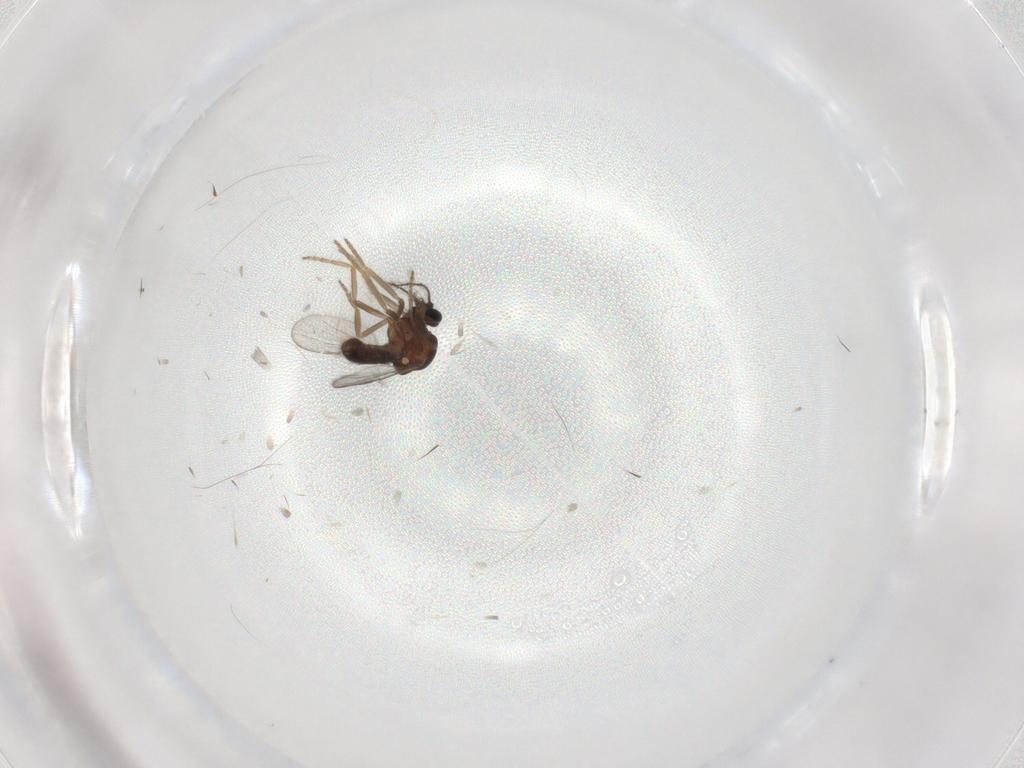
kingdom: Animalia
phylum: Arthropoda
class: Insecta
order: Diptera
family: Ceratopogonidae
